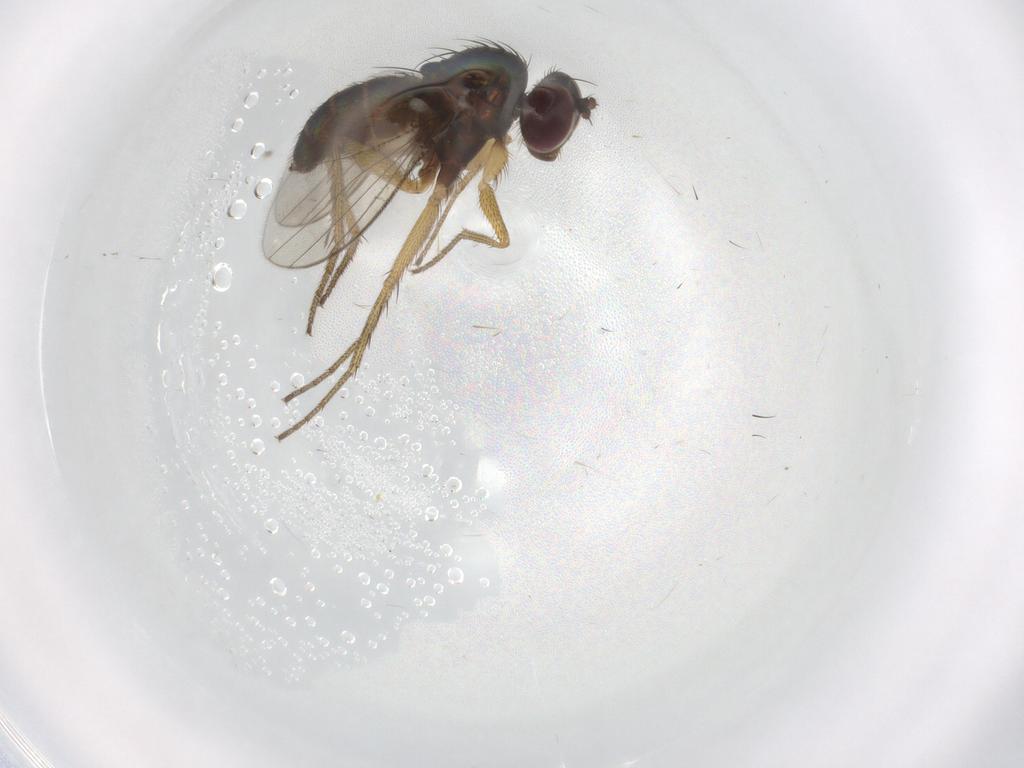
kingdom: Animalia
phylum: Arthropoda
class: Insecta
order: Diptera
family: Dolichopodidae
